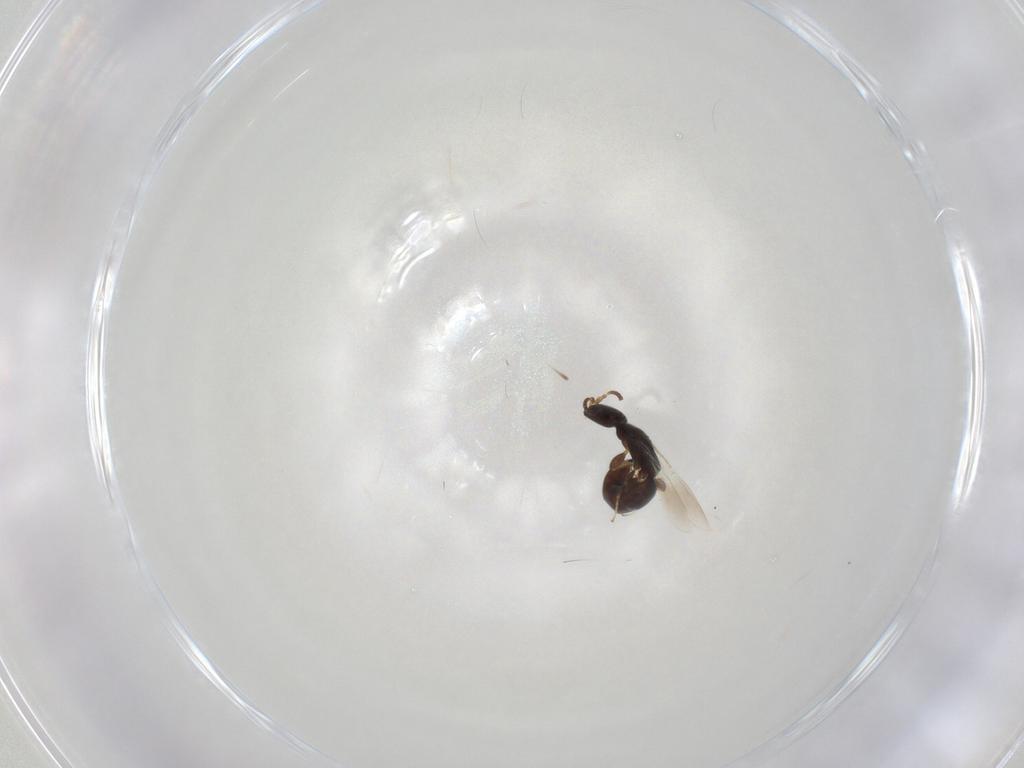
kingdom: Animalia
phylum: Arthropoda
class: Insecta
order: Hymenoptera
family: Bethylidae
